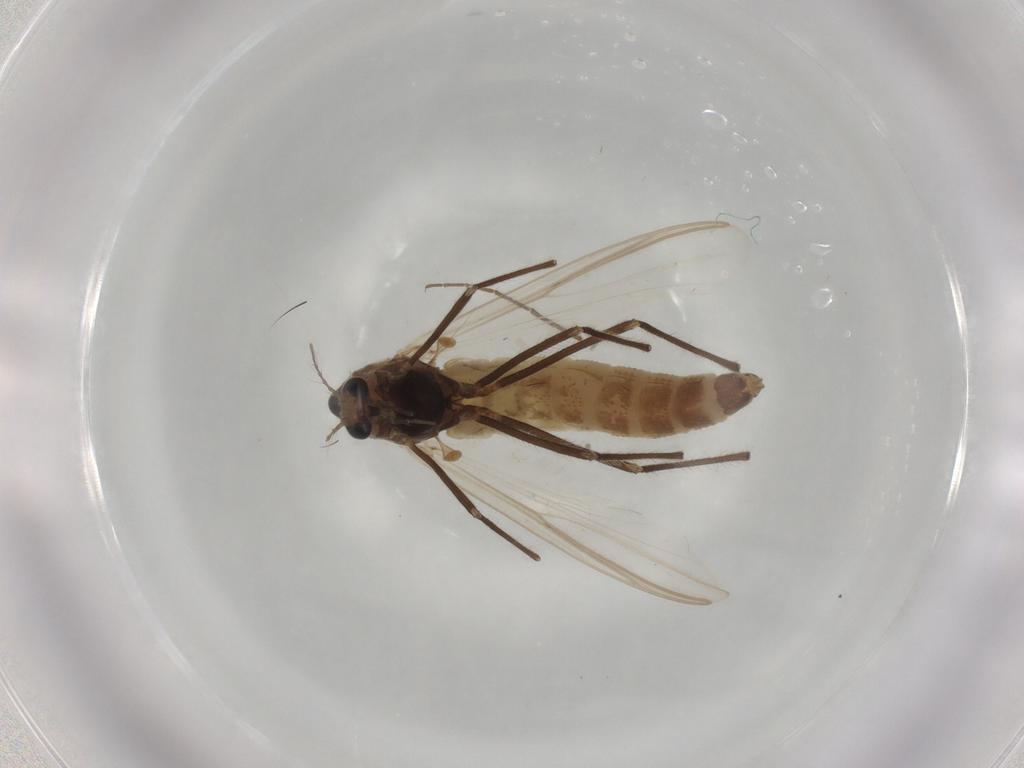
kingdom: Animalia
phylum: Arthropoda
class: Insecta
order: Diptera
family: Chironomidae
